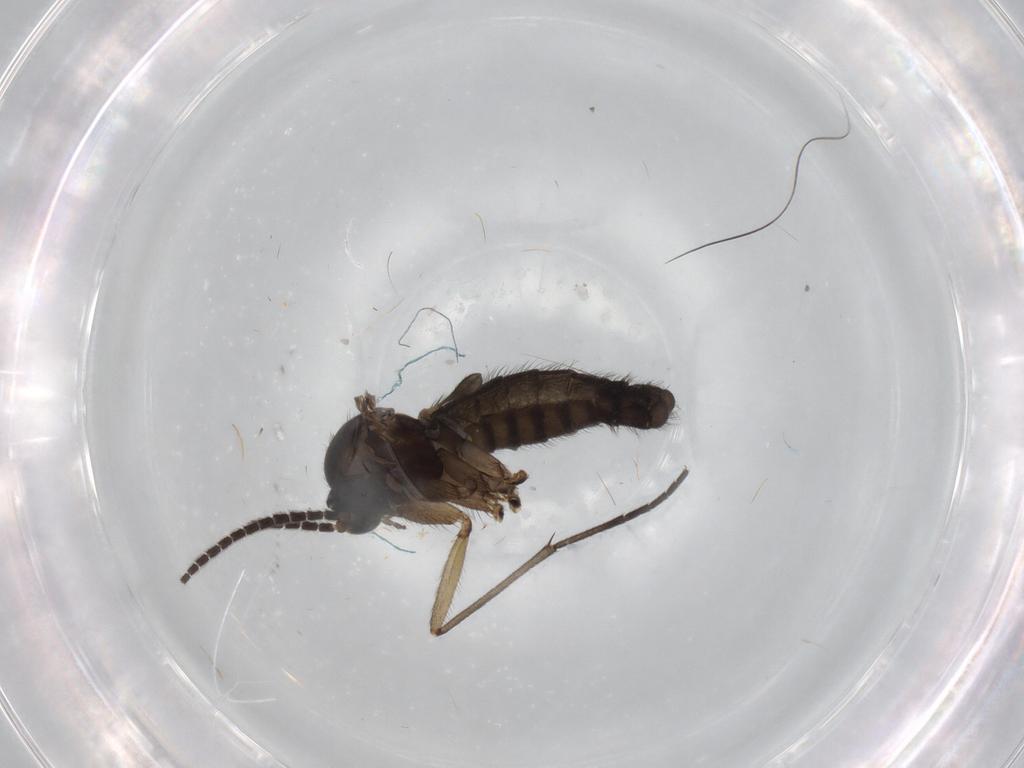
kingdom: Animalia
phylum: Arthropoda
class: Insecta
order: Diptera
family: Sciaridae
